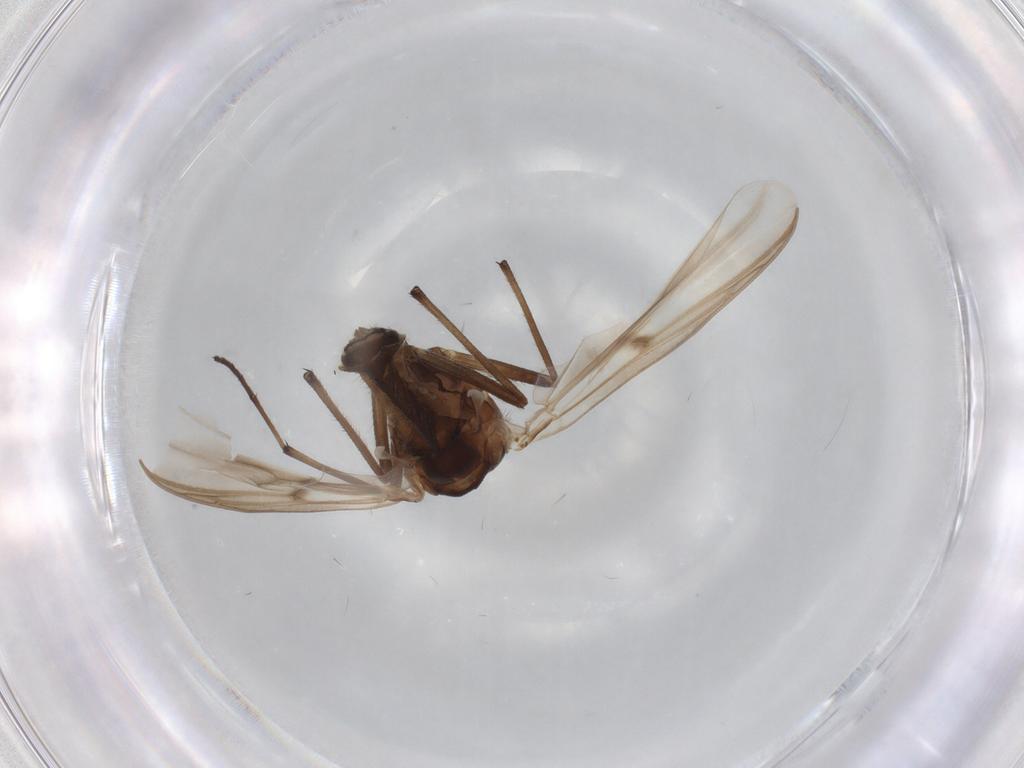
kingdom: Animalia
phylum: Arthropoda
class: Insecta
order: Diptera
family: Chironomidae
